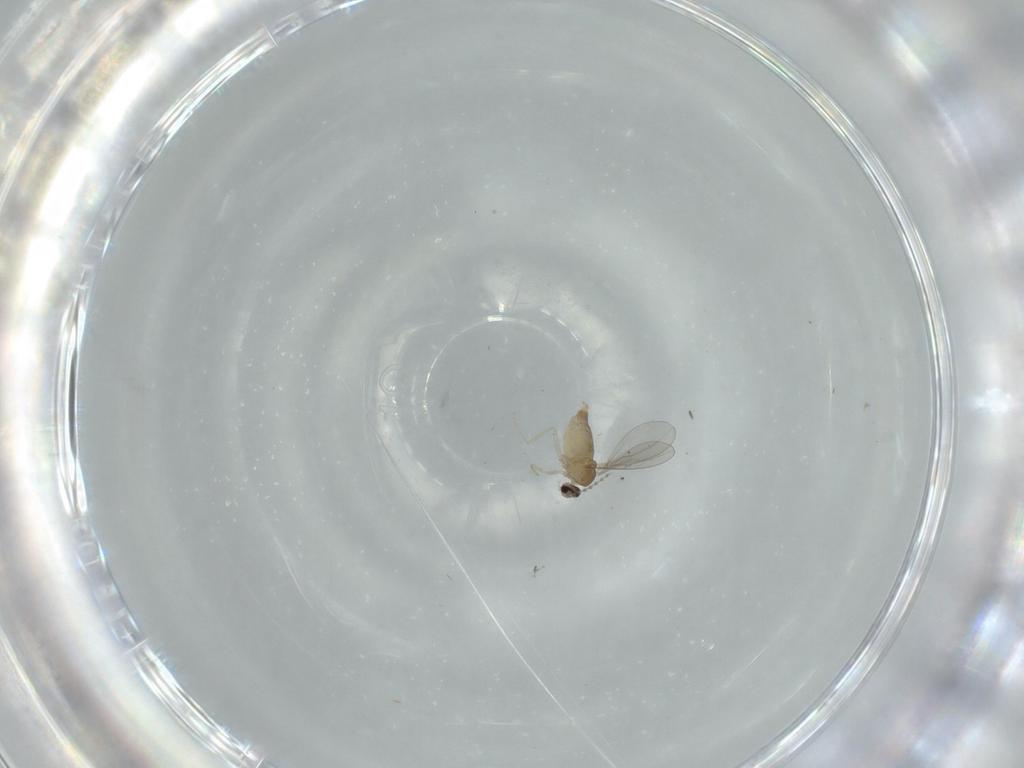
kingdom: Animalia
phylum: Arthropoda
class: Insecta
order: Diptera
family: Cecidomyiidae
